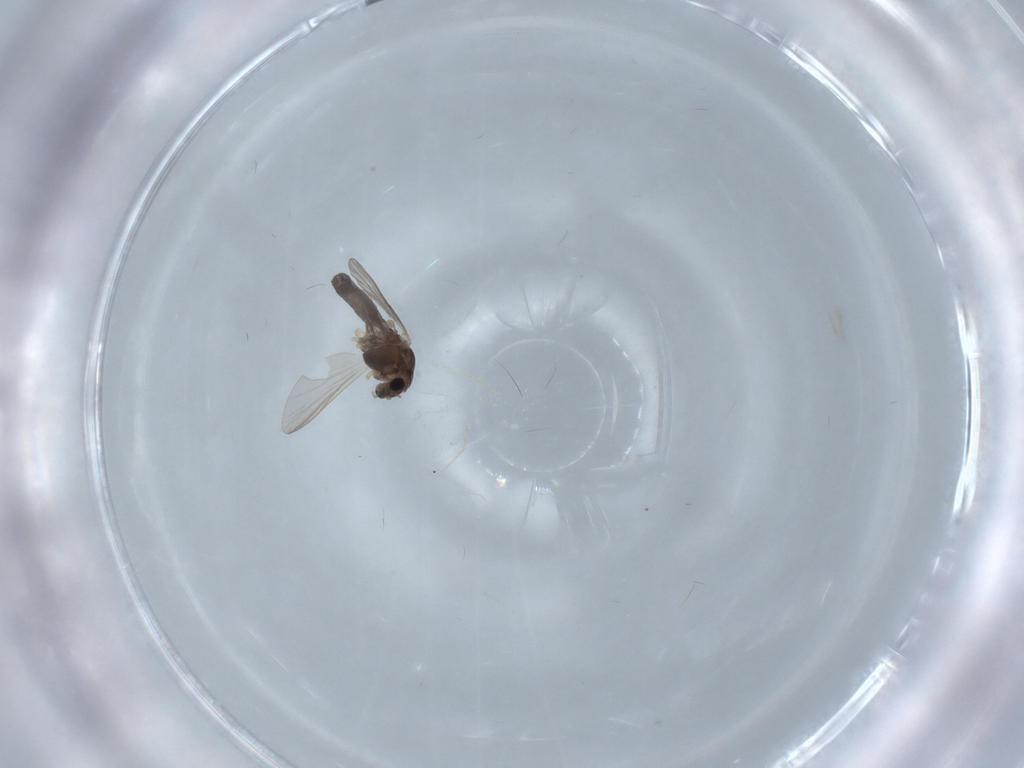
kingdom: Animalia
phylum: Arthropoda
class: Insecta
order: Diptera
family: Chironomidae
